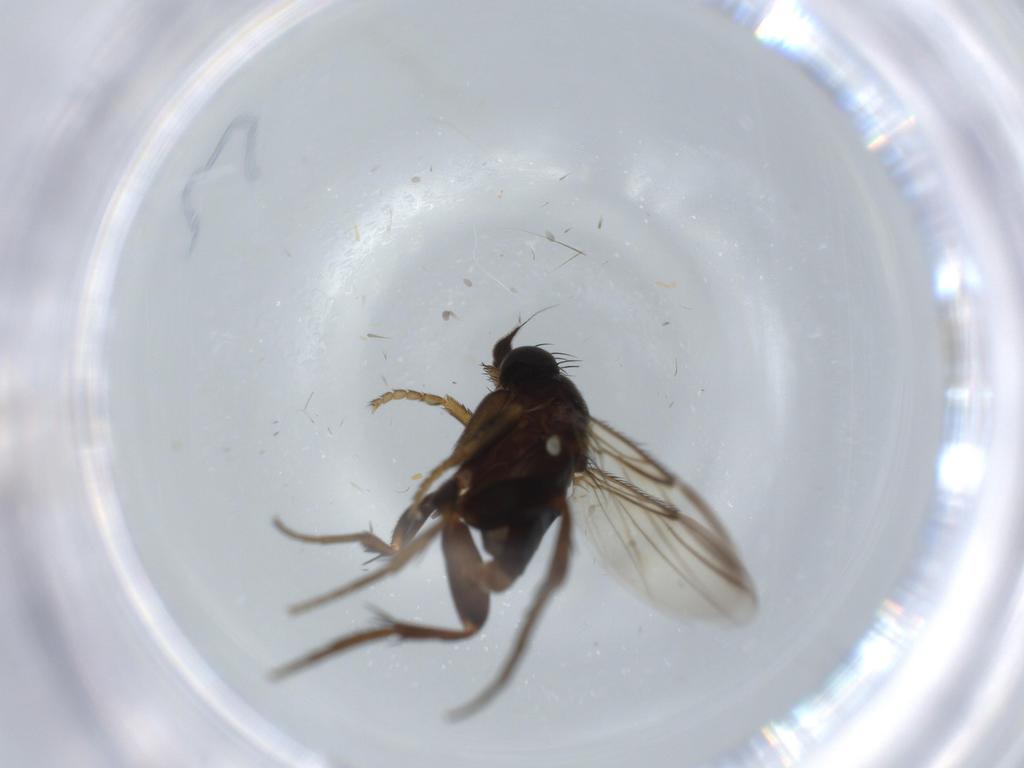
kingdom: Animalia
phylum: Arthropoda
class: Insecta
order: Diptera
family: Phoridae
